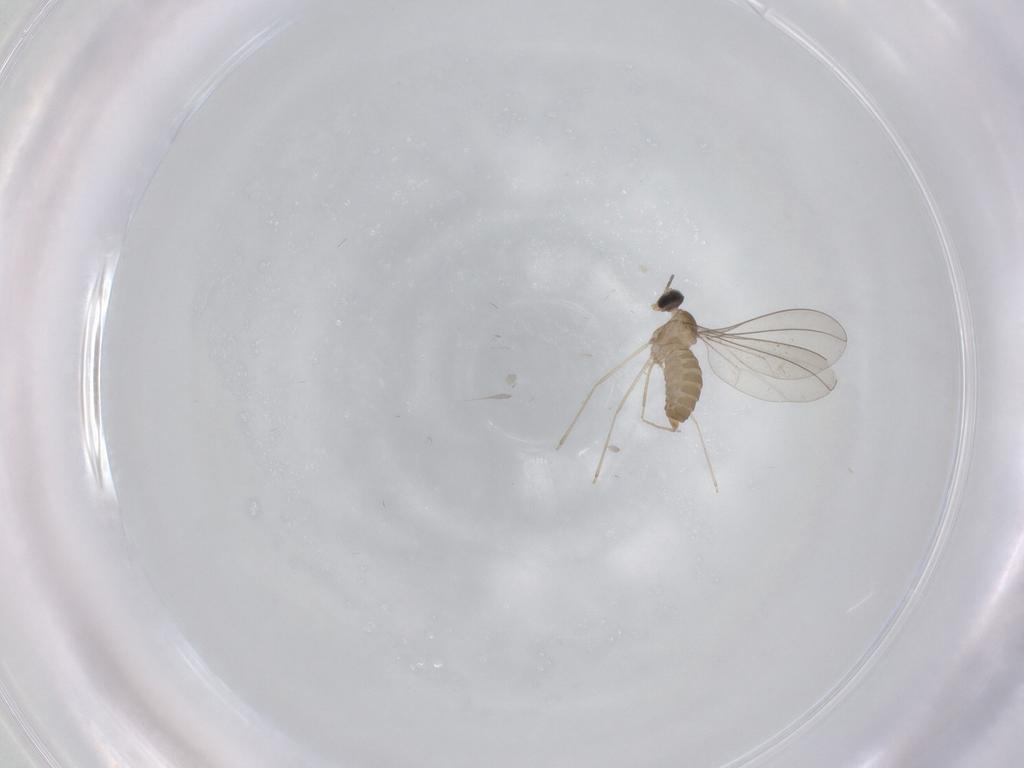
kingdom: Animalia
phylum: Arthropoda
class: Insecta
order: Diptera
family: Cecidomyiidae
